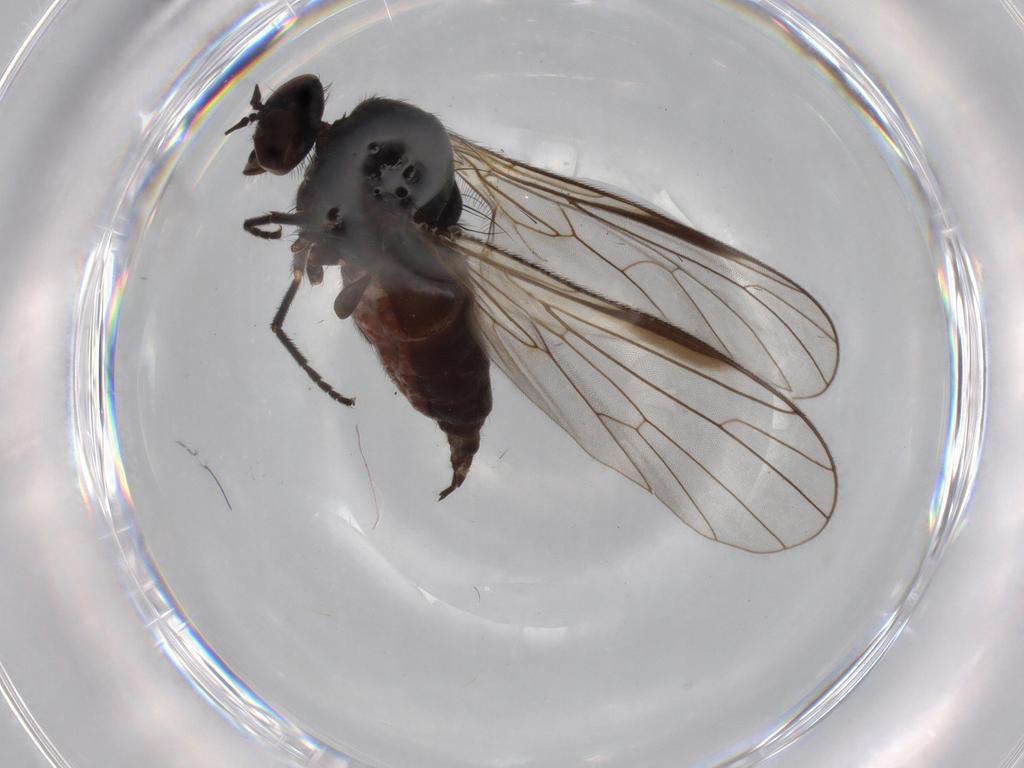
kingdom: Animalia
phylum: Arthropoda
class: Insecta
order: Diptera
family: Empididae
